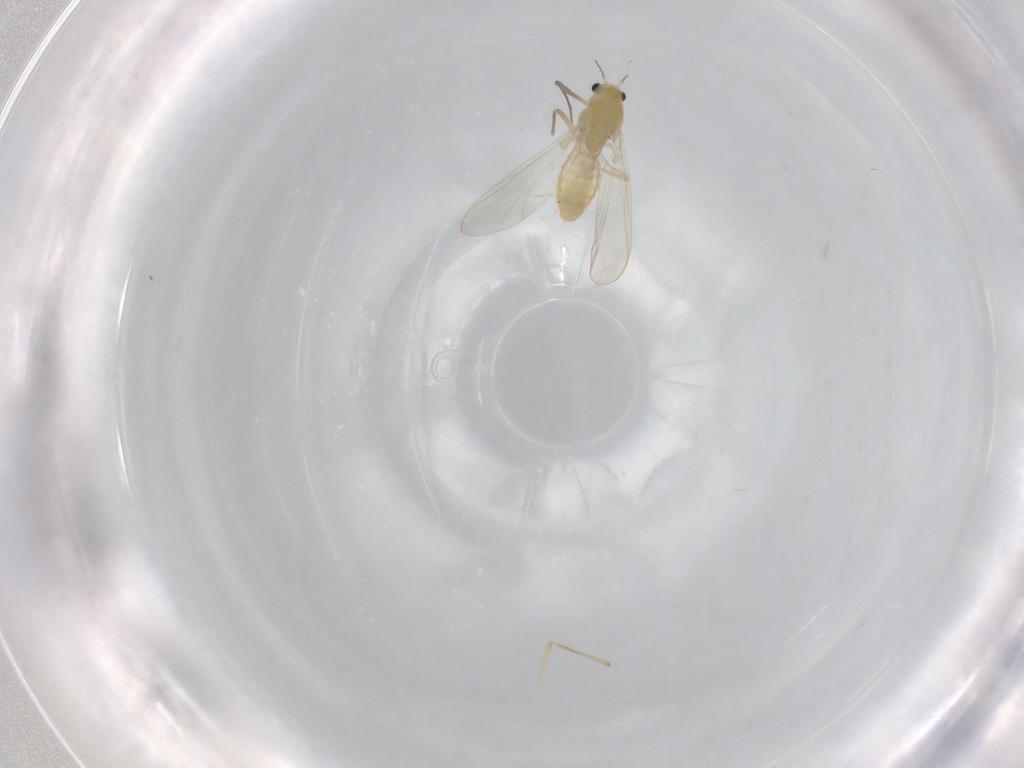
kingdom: Animalia
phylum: Arthropoda
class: Insecta
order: Diptera
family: Chironomidae
